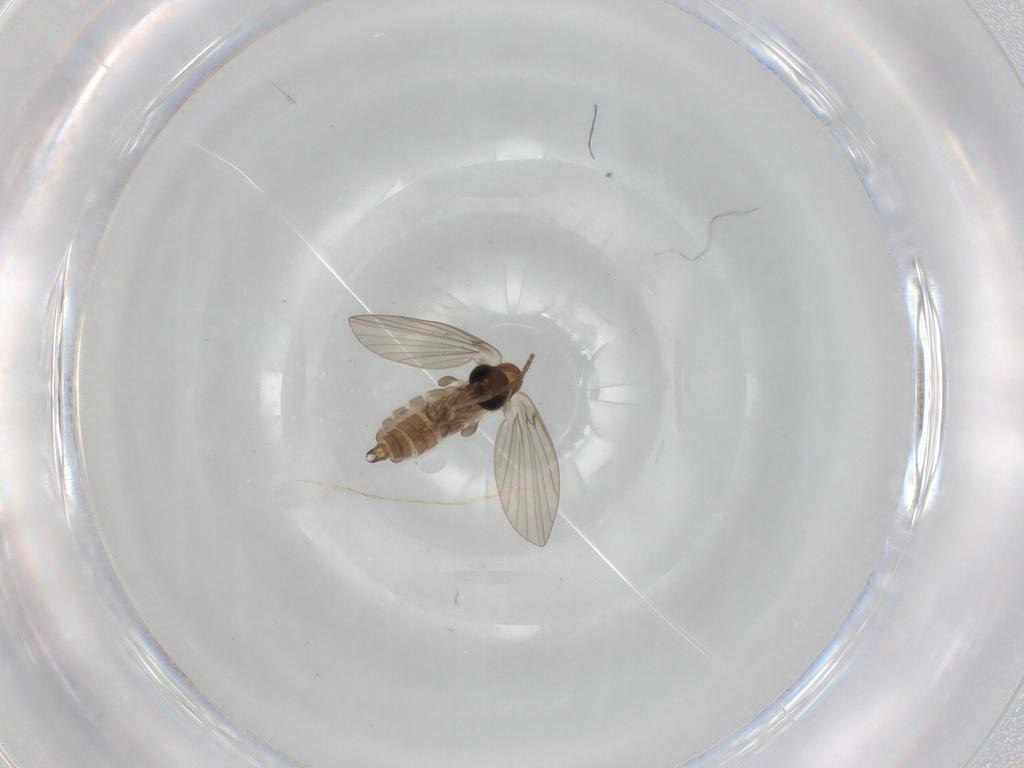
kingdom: Animalia
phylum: Arthropoda
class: Insecta
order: Diptera
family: Psychodidae
